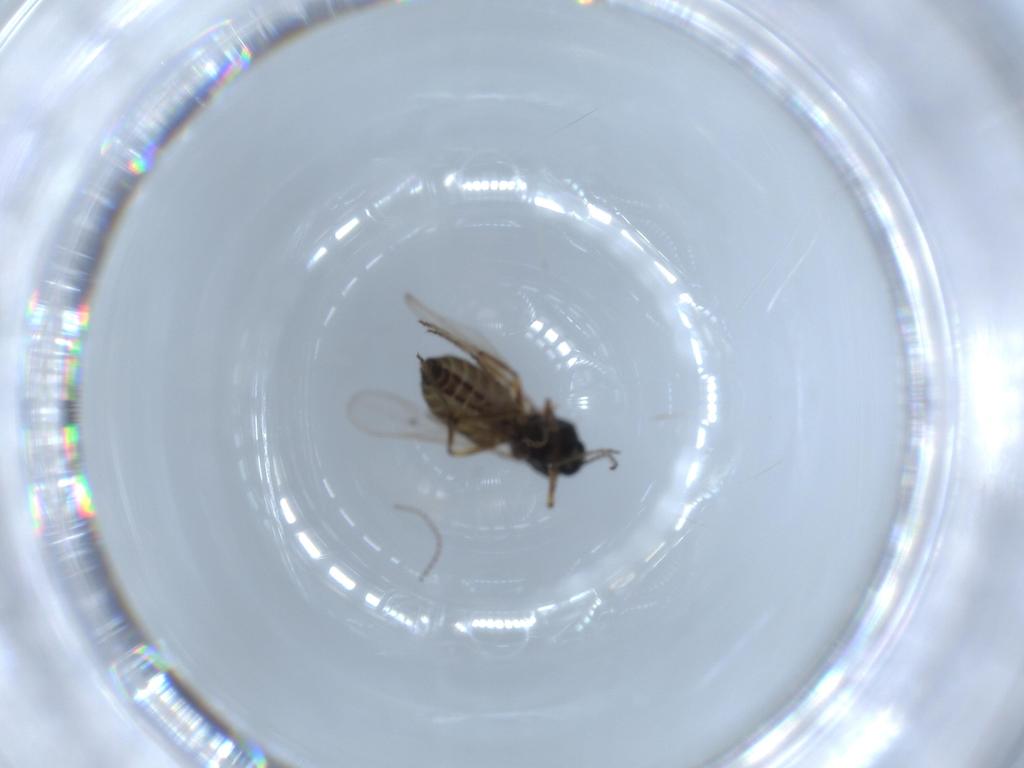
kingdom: Animalia
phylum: Arthropoda
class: Insecta
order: Diptera
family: Ceratopogonidae
